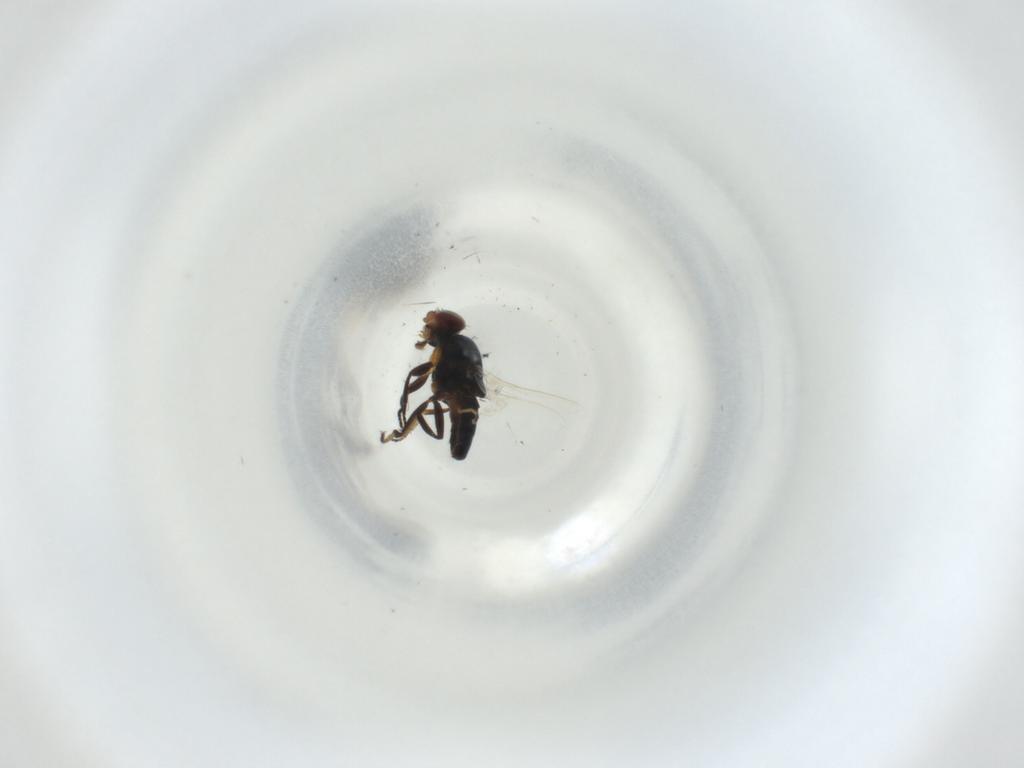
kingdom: Animalia
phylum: Arthropoda
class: Insecta
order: Diptera
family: Chloropidae
